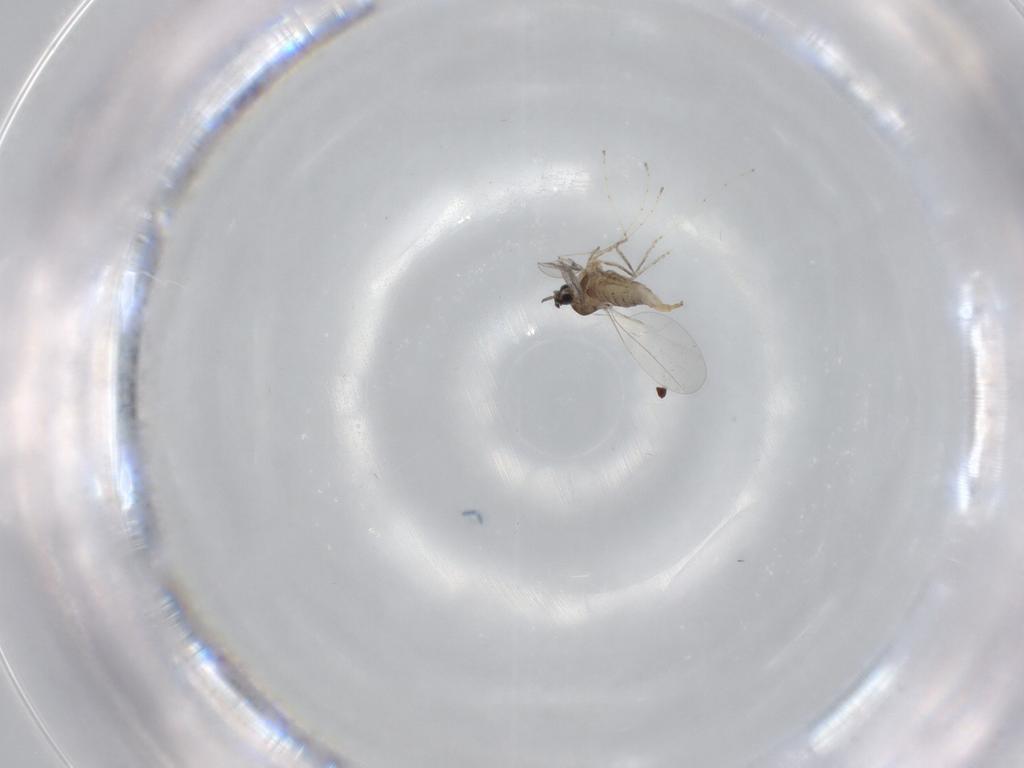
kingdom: Animalia
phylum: Arthropoda
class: Insecta
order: Diptera
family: Cecidomyiidae
